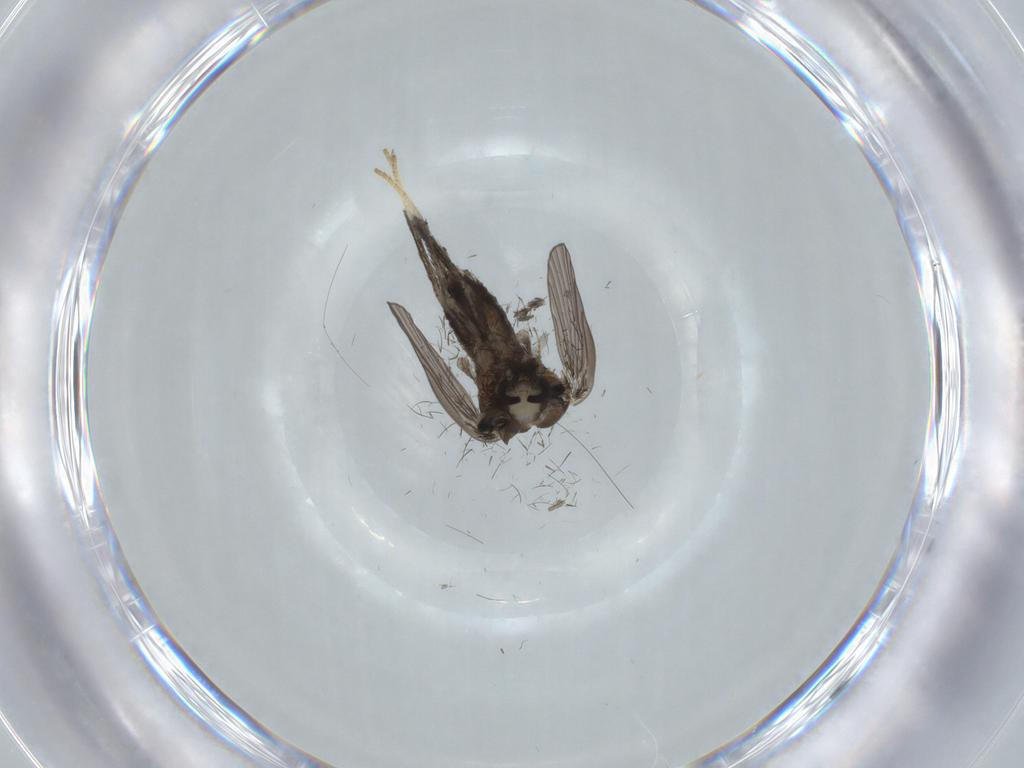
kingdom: Animalia
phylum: Arthropoda
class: Insecta
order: Diptera
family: Psychodidae
